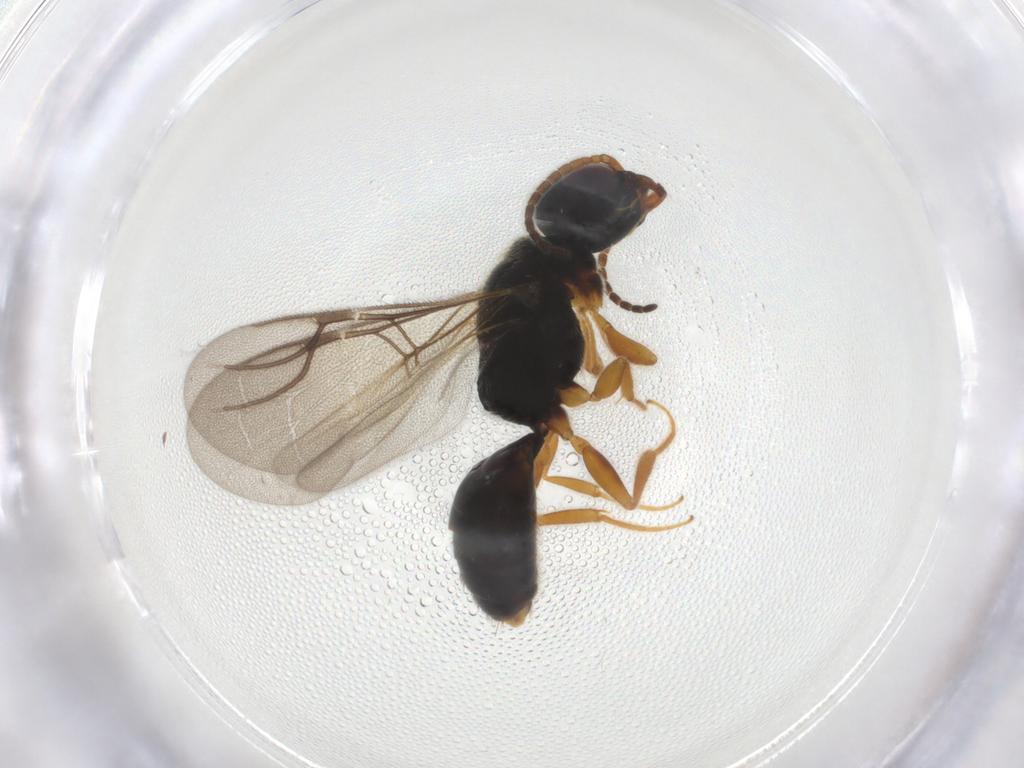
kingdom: Animalia
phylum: Arthropoda
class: Insecta
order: Hymenoptera
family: Bethylidae
